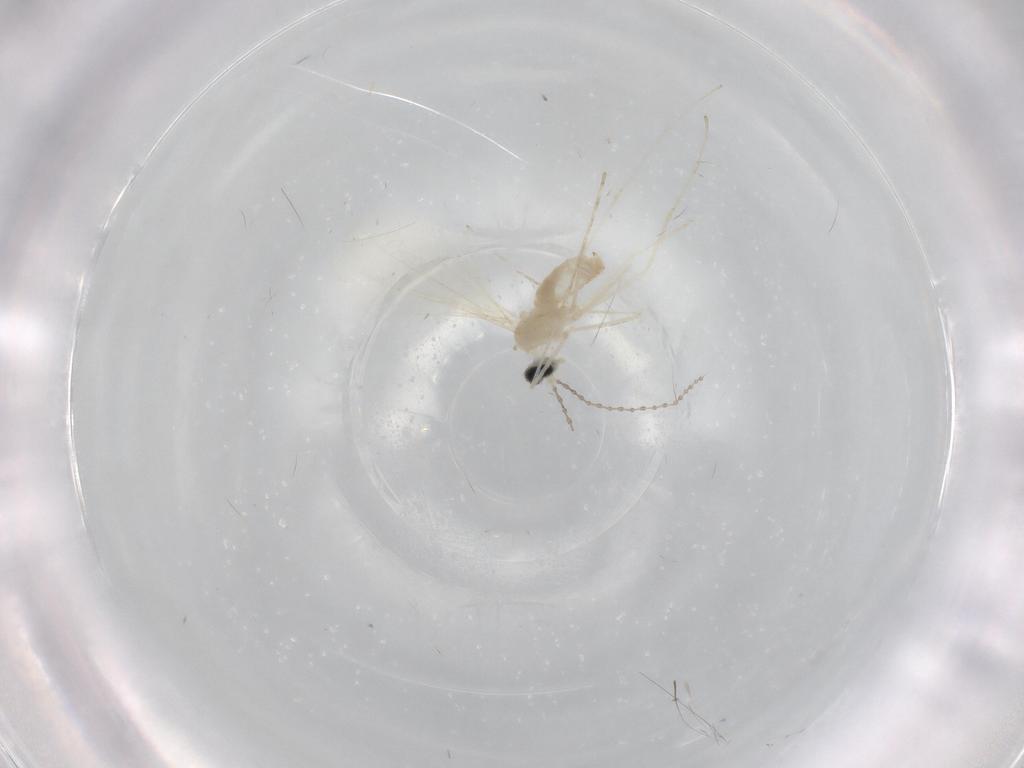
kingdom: Animalia
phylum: Arthropoda
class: Insecta
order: Diptera
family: Cecidomyiidae
